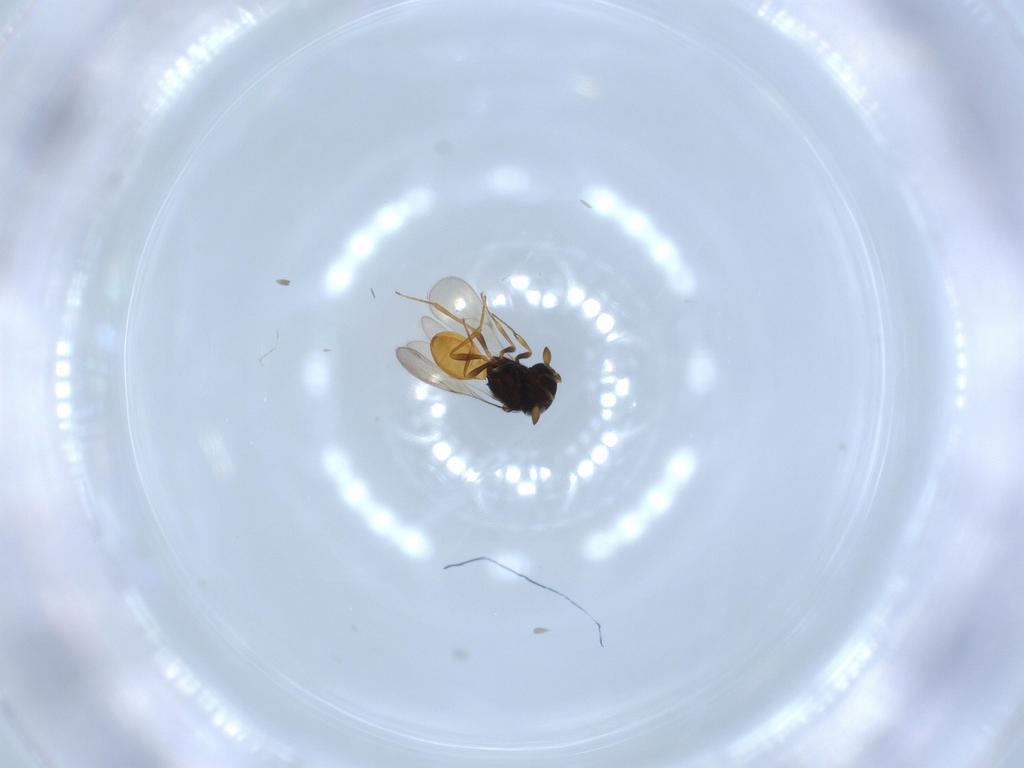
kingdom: Animalia
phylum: Arthropoda
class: Insecta
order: Hymenoptera
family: Scelionidae
